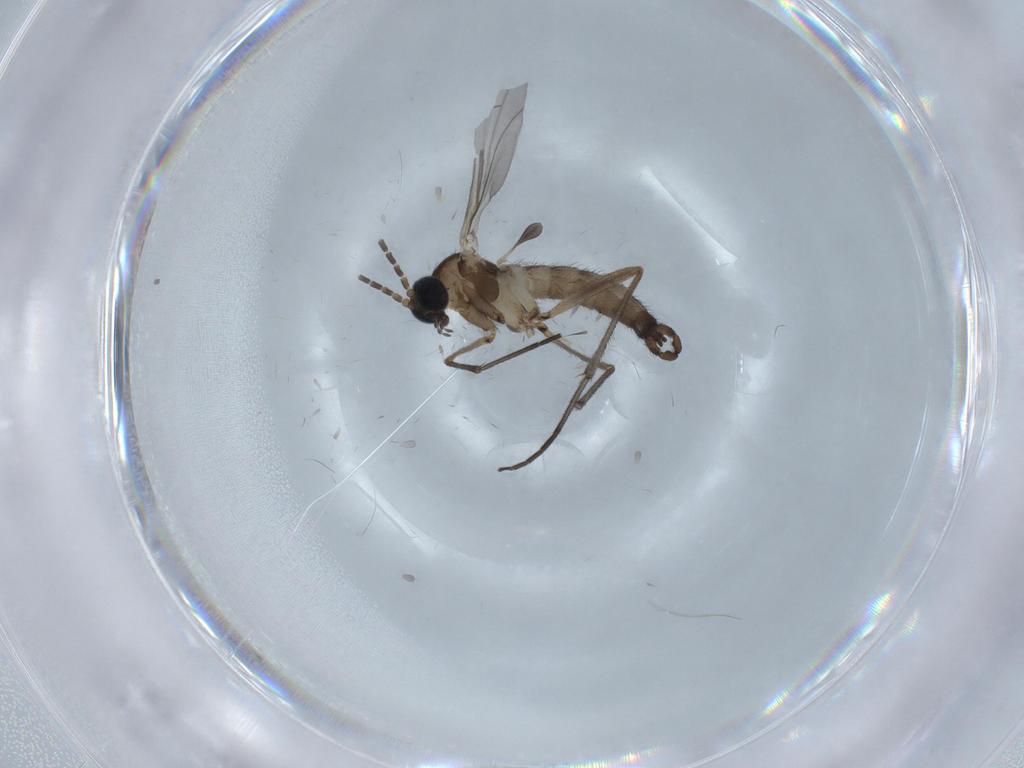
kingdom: Animalia
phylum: Arthropoda
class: Insecta
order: Diptera
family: Sciaridae
